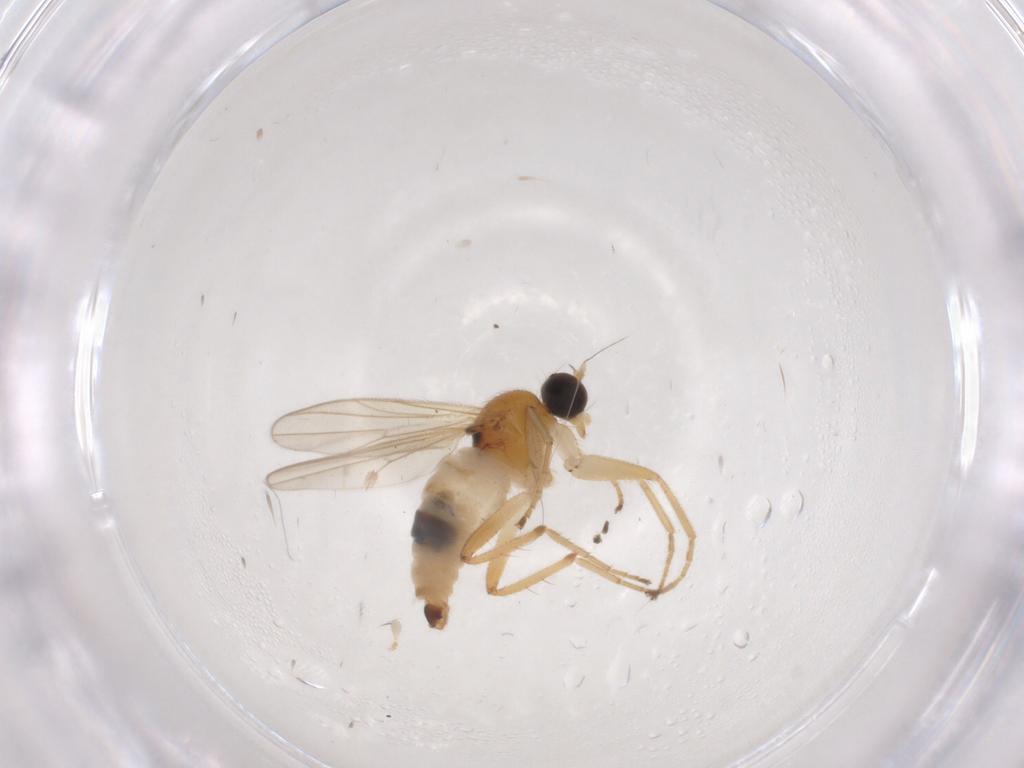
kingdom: Animalia
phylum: Arthropoda
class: Insecta
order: Diptera
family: Hybotidae
